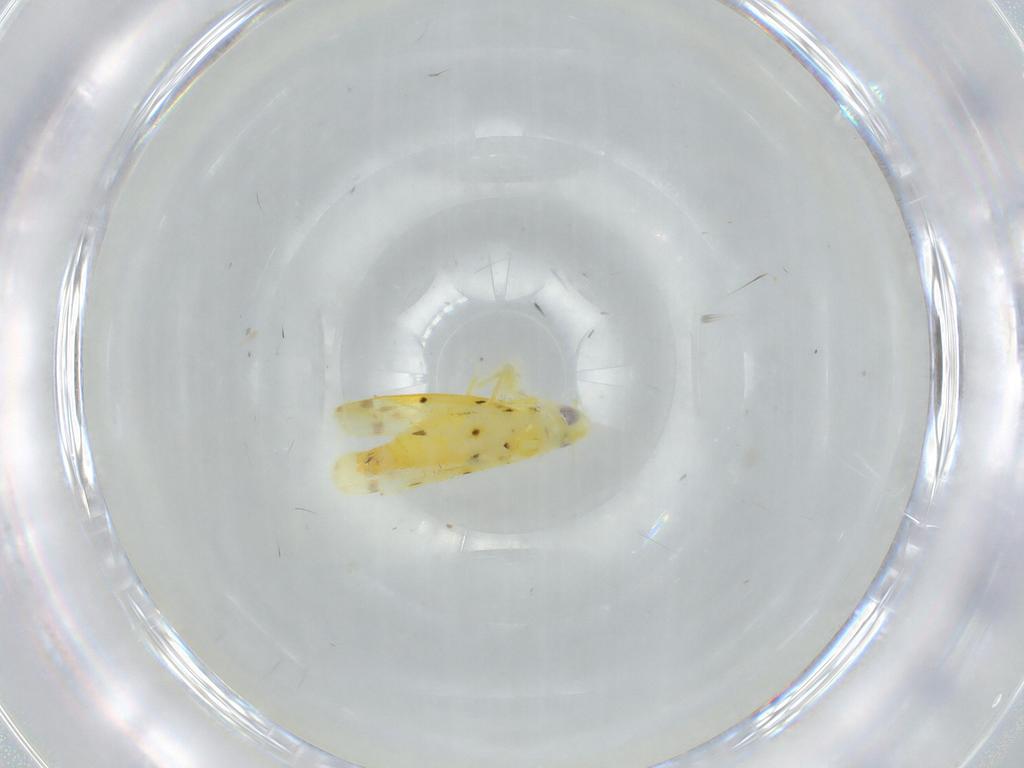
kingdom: Animalia
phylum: Arthropoda
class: Insecta
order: Hemiptera
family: Cicadellidae
